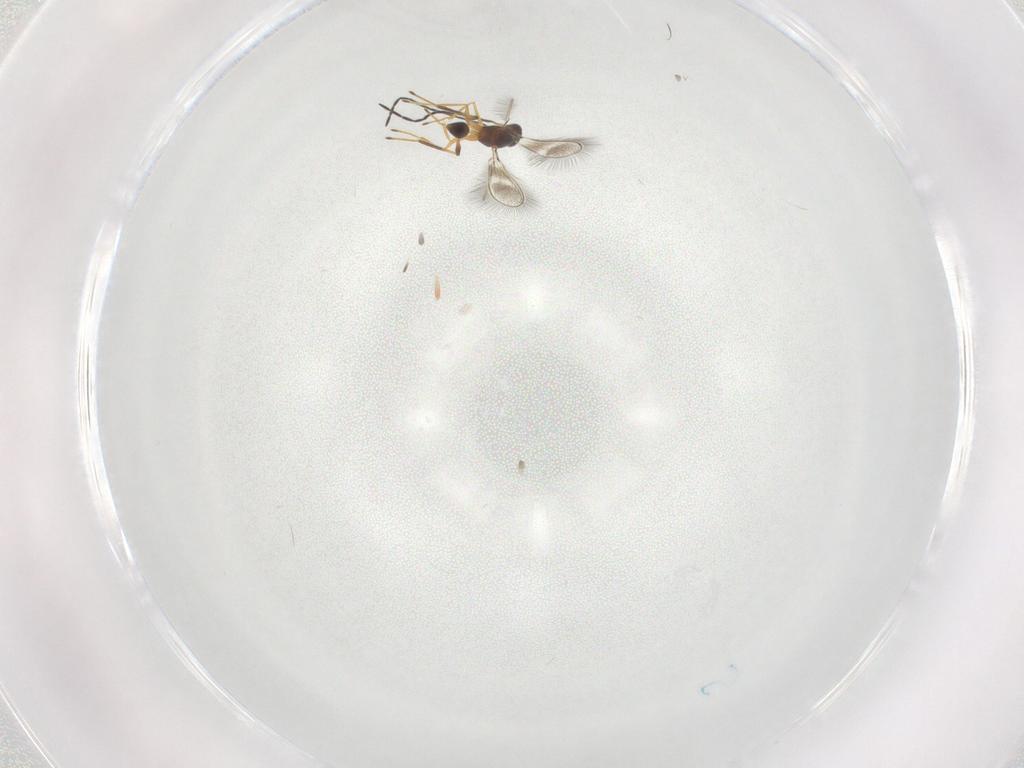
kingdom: Animalia
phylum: Arthropoda
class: Insecta
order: Hymenoptera
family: Mymaridae
